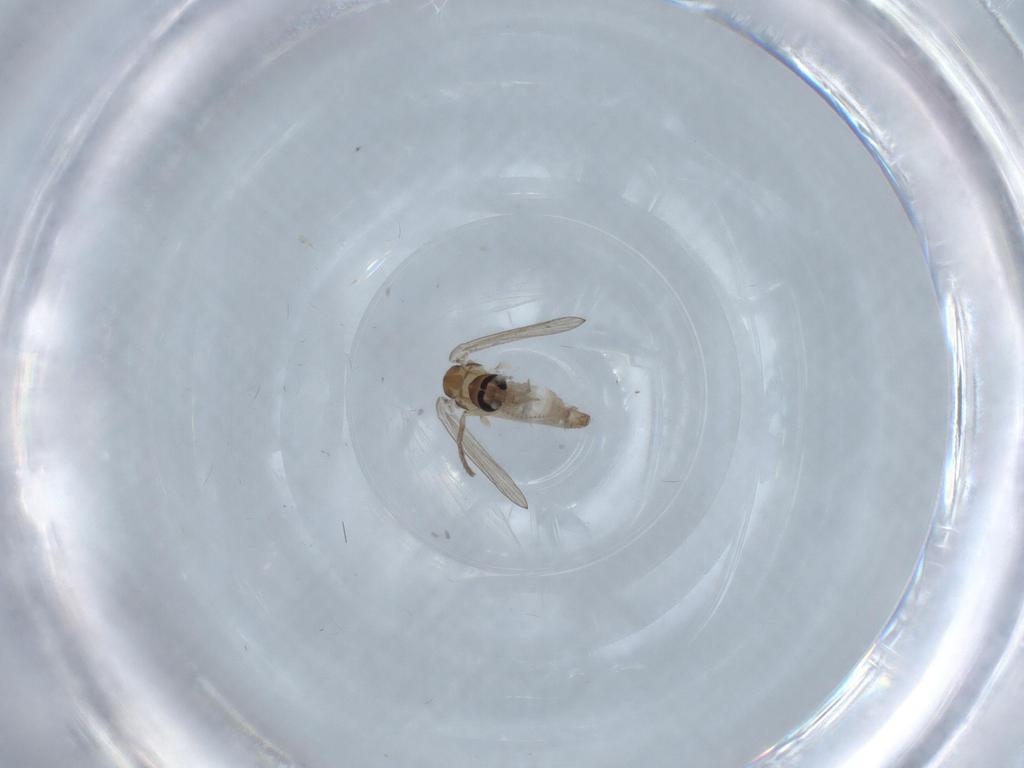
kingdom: Animalia
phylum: Arthropoda
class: Insecta
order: Diptera
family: Psychodidae
